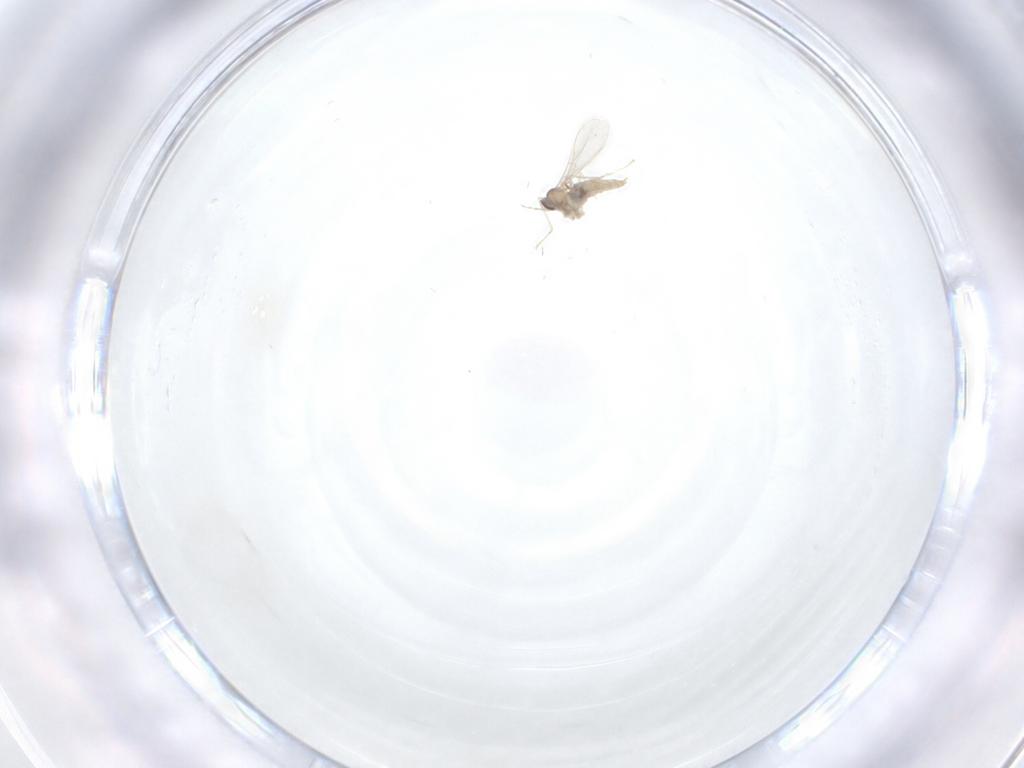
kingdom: Animalia
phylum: Arthropoda
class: Insecta
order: Diptera
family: Cecidomyiidae
